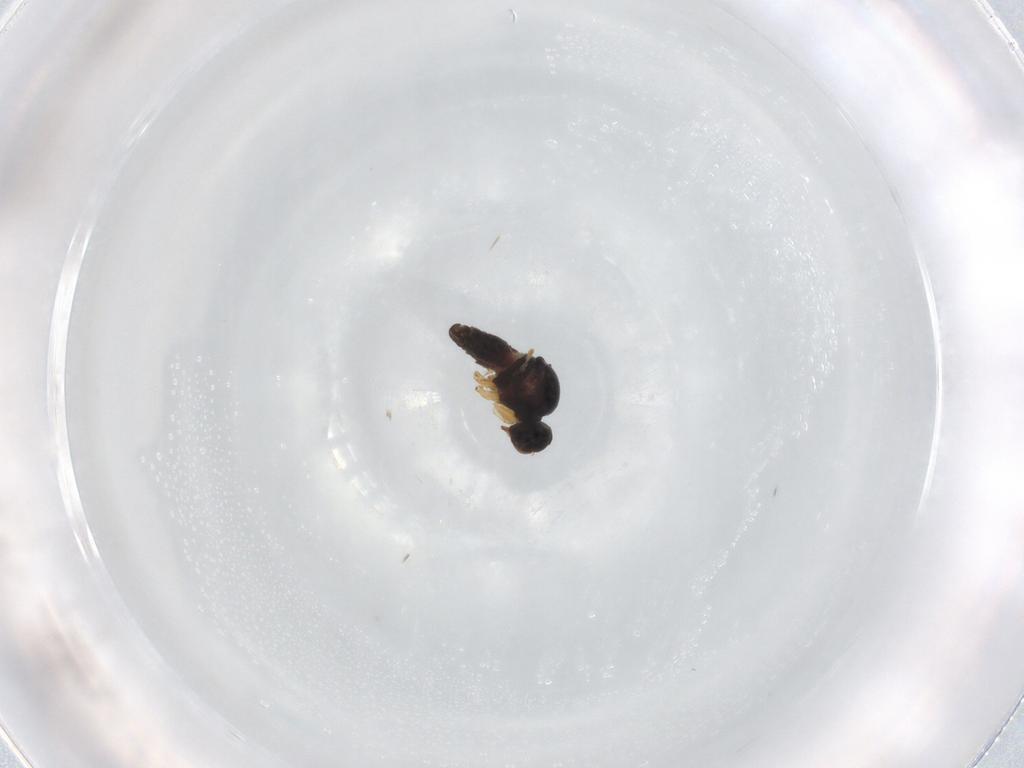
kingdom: Animalia
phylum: Arthropoda
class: Insecta
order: Diptera
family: Hybotidae
